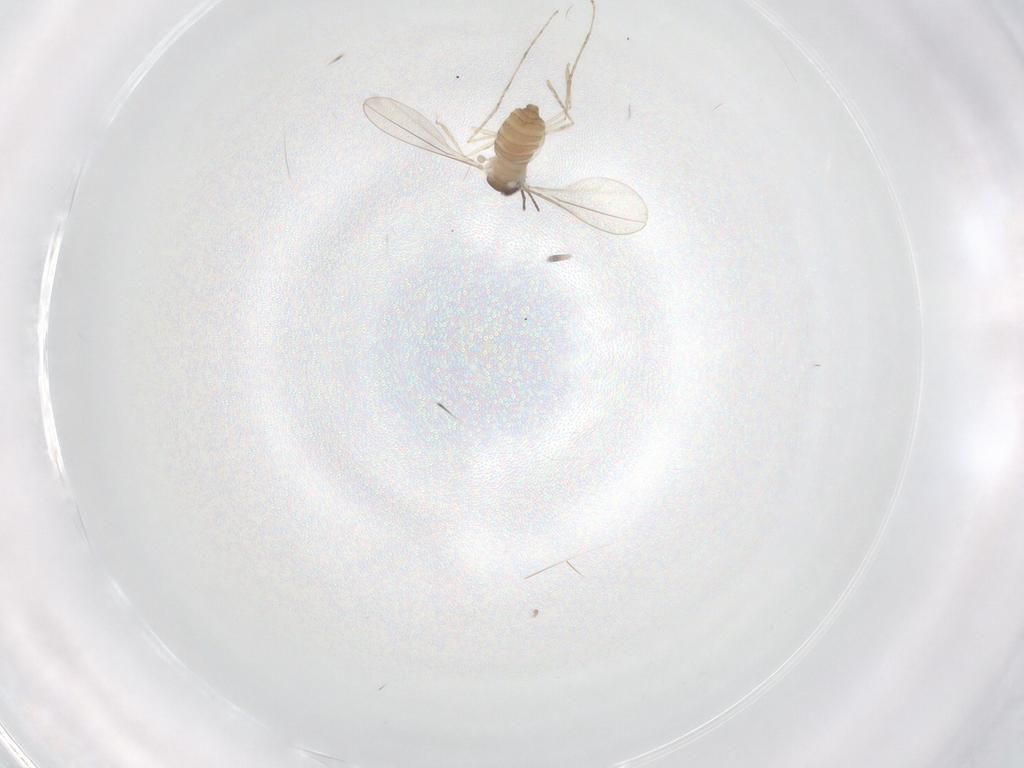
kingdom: Animalia
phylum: Arthropoda
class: Insecta
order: Diptera
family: Cecidomyiidae
